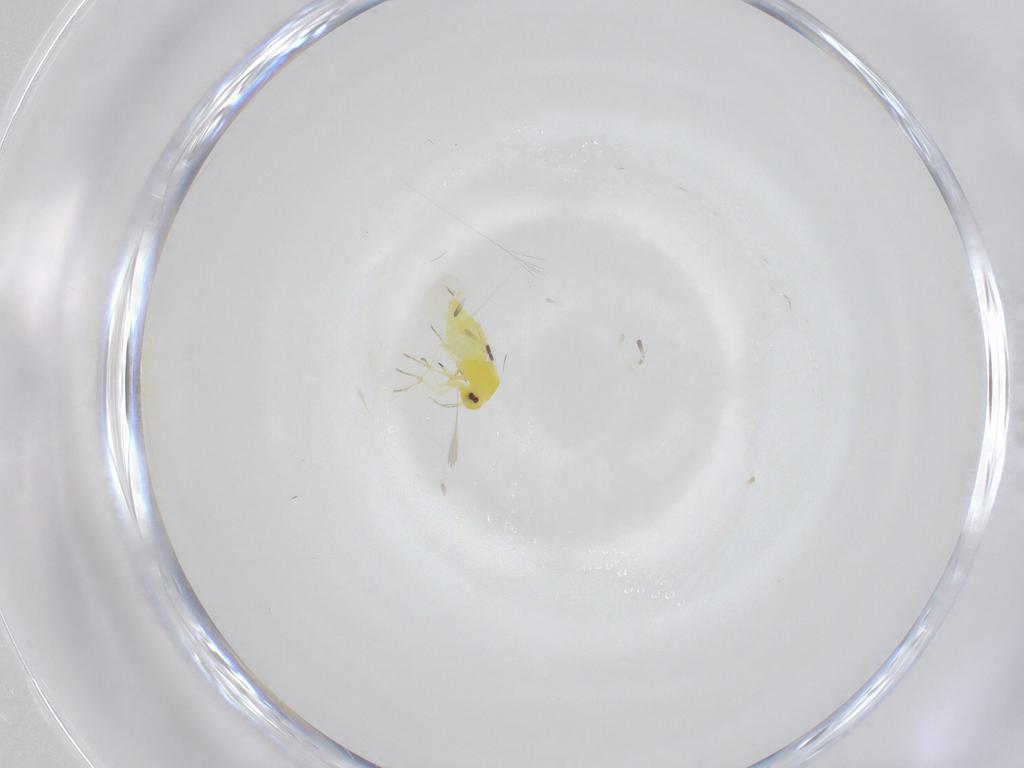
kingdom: Animalia
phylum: Arthropoda
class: Insecta
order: Hemiptera
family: Aleyrodidae
